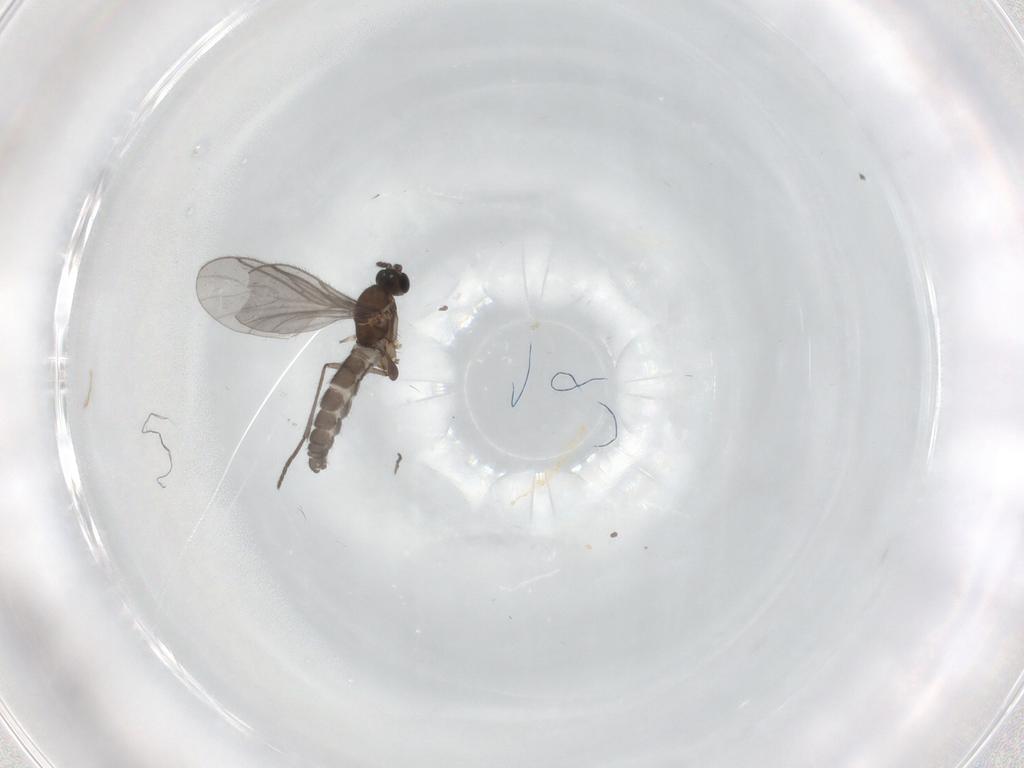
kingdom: Animalia
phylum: Arthropoda
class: Insecta
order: Diptera
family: Sciaridae
